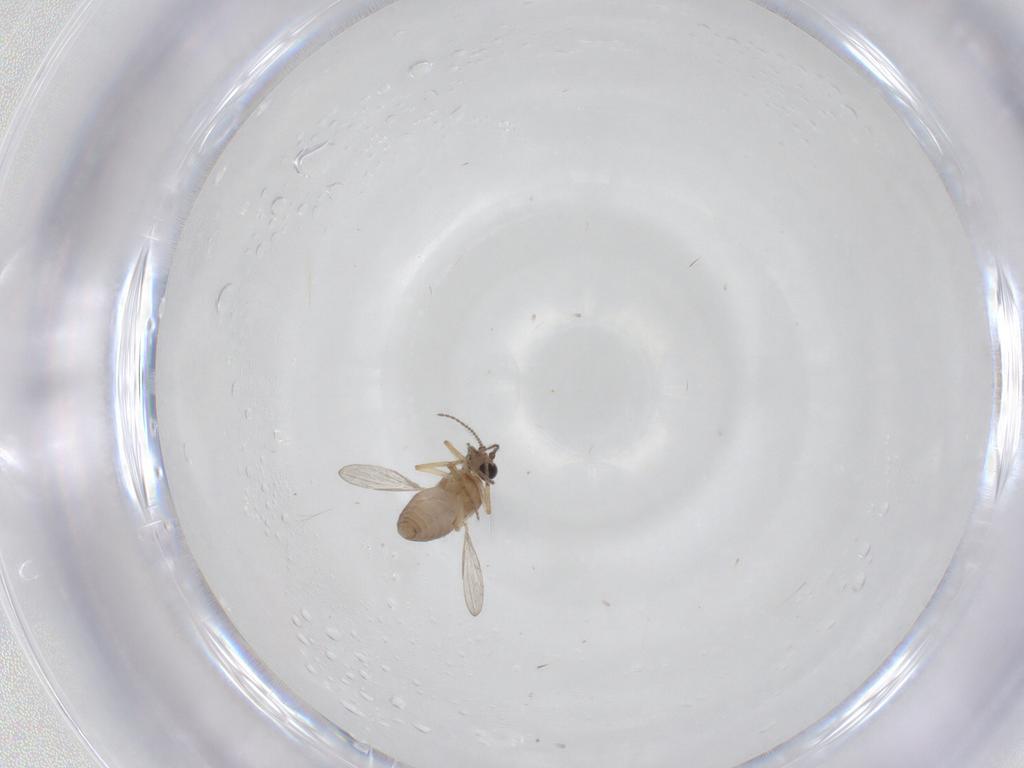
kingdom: Animalia
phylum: Arthropoda
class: Insecta
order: Diptera
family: Ceratopogonidae
